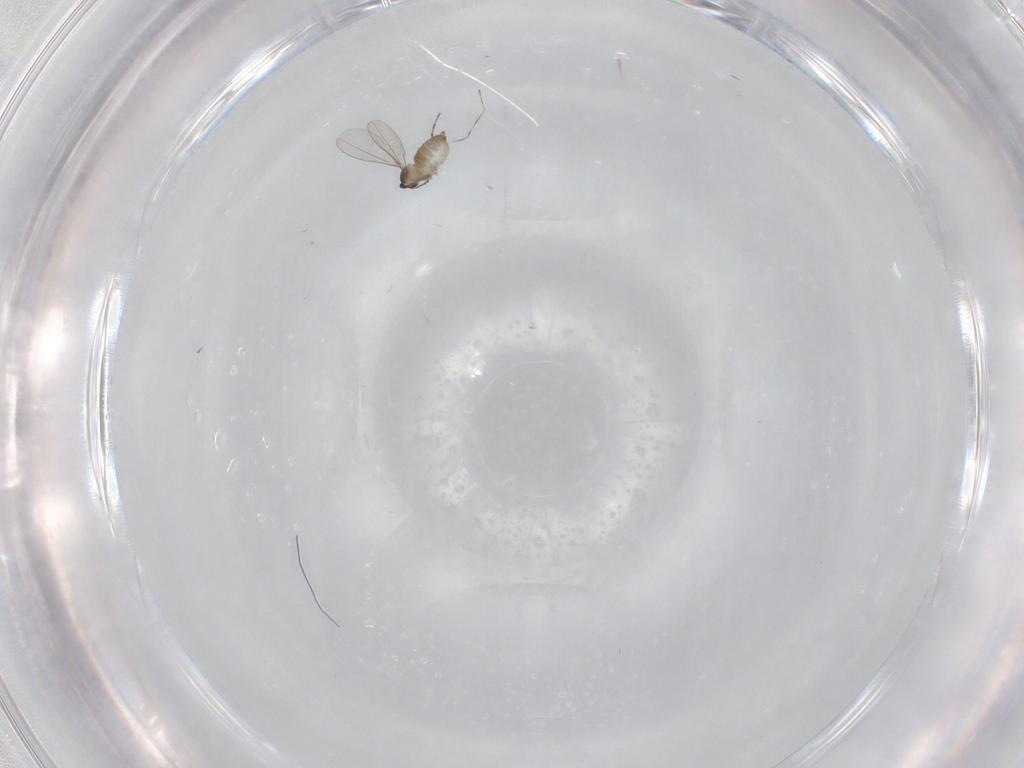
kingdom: Animalia
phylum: Arthropoda
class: Insecta
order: Diptera
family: Cecidomyiidae
